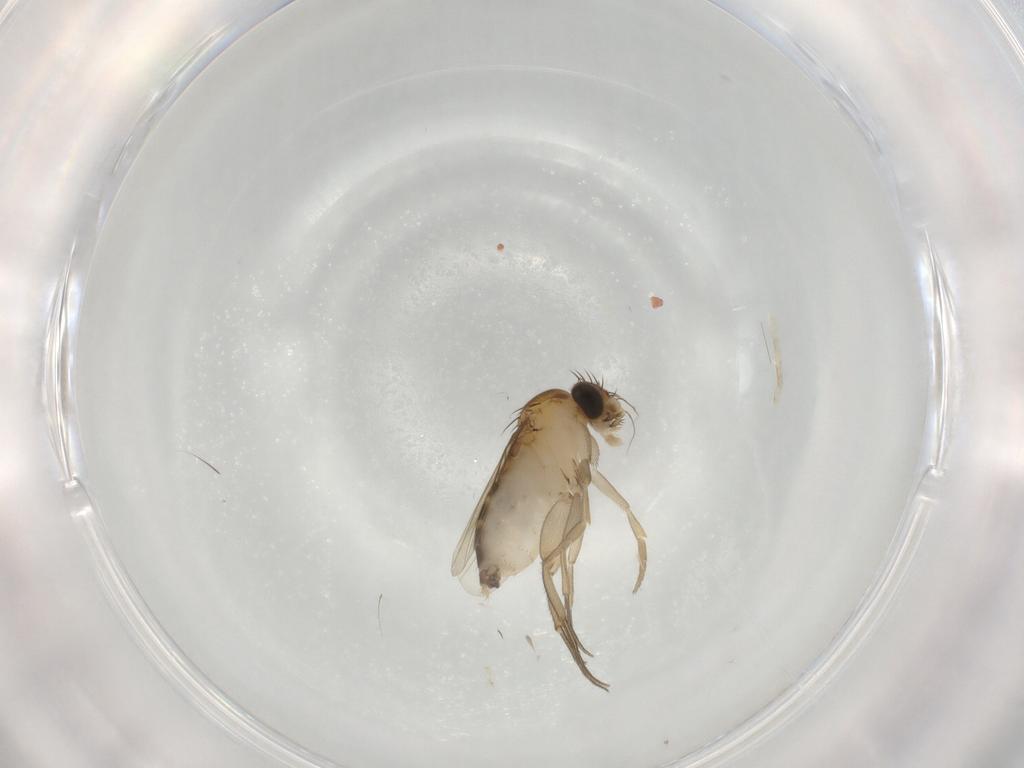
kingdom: Animalia
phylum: Arthropoda
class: Insecta
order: Diptera
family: Phoridae
